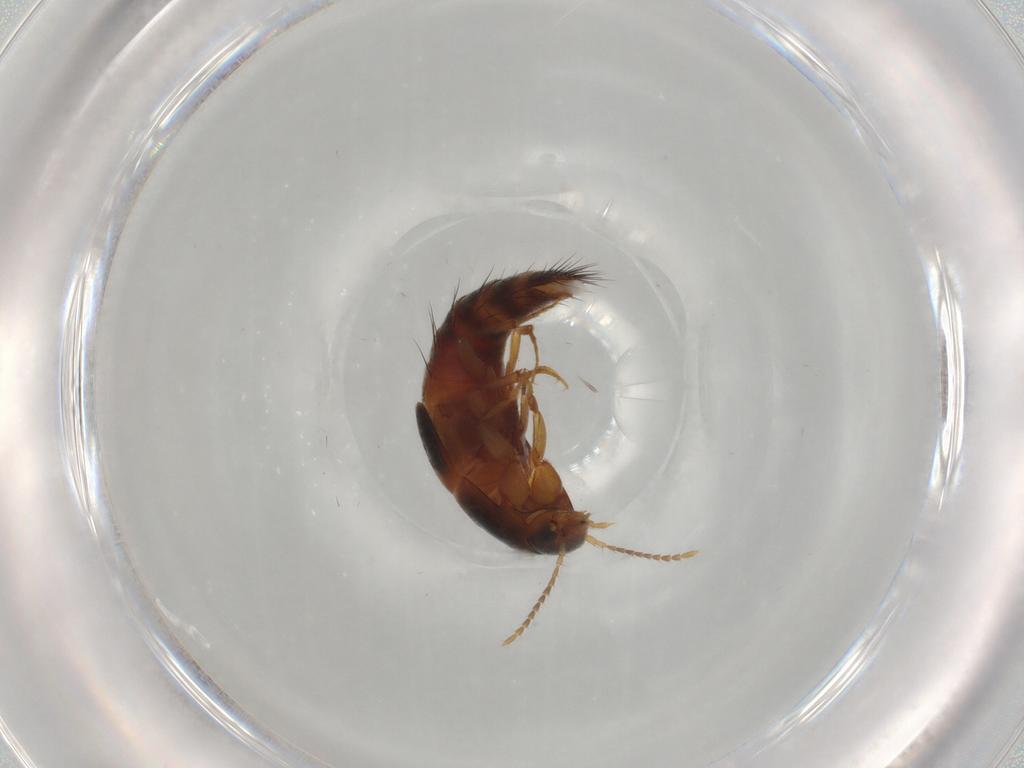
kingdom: Animalia
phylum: Arthropoda
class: Insecta
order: Coleoptera
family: Staphylinidae
